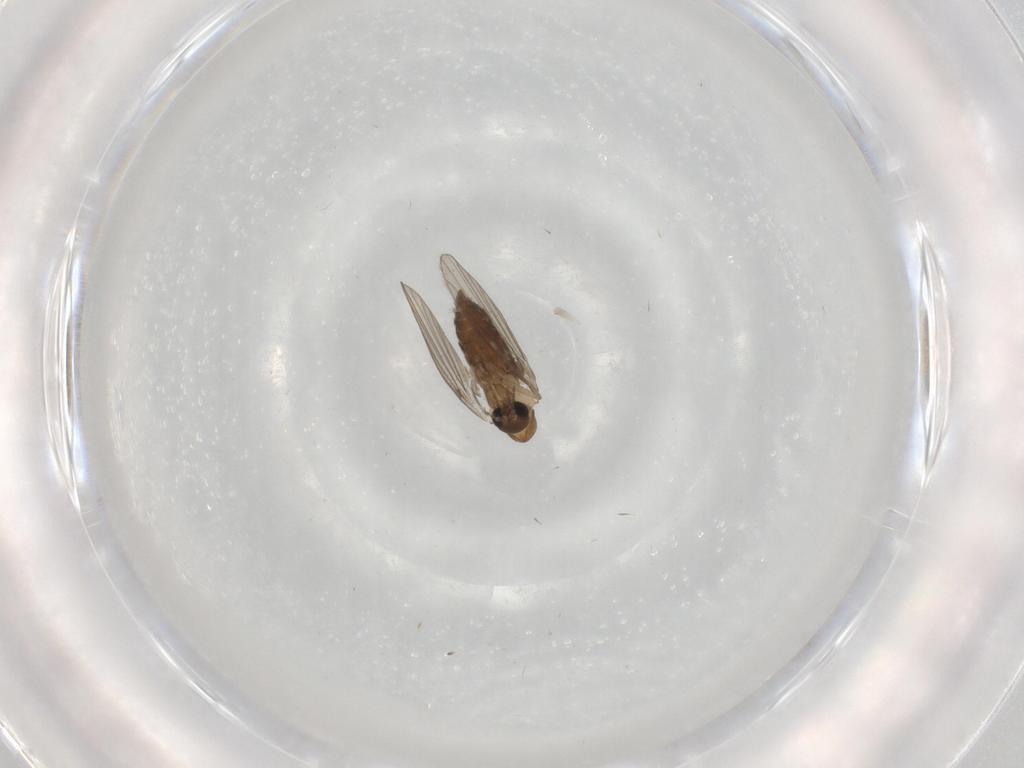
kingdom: Animalia
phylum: Arthropoda
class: Insecta
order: Diptera
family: Psychodidae
